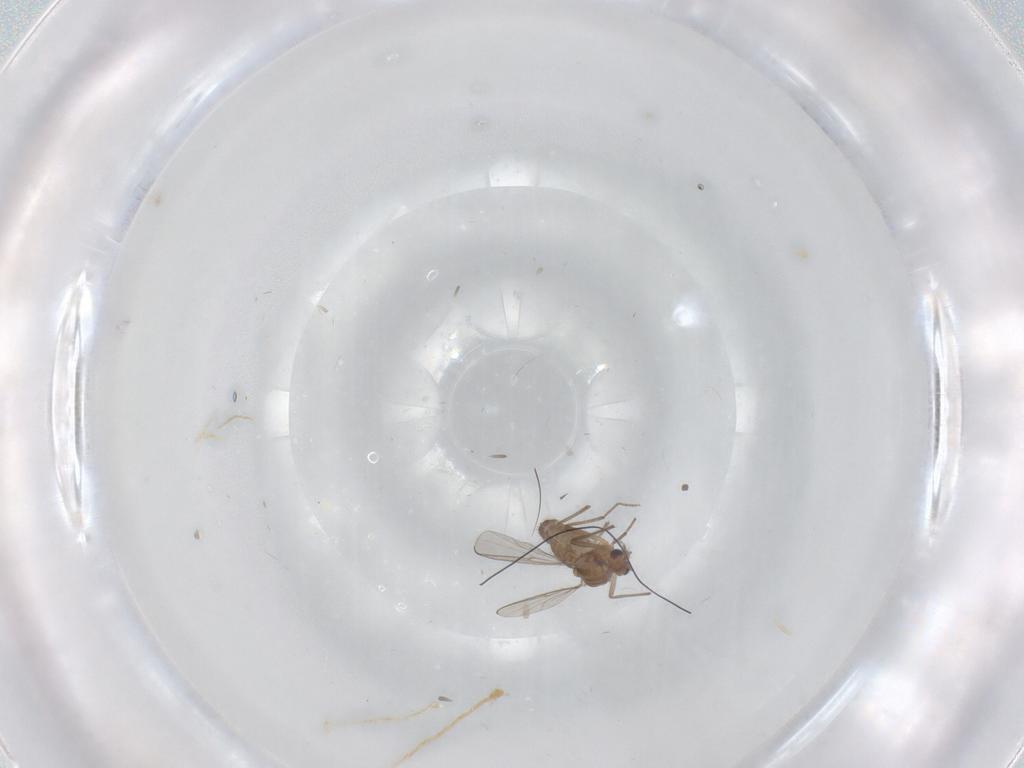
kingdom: Animalia
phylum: Arthropoda
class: Insecta
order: Diptera
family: Chironomidae
